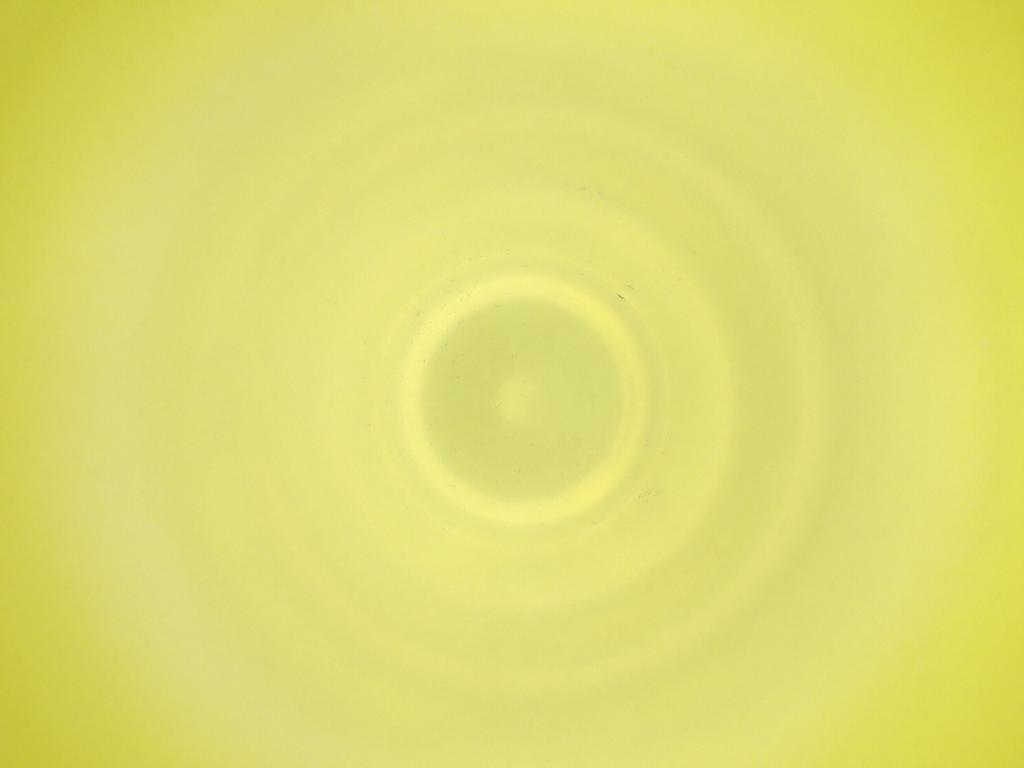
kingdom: Animalia
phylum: Arthropoda
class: Insecta
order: Diptera
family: Cecidomyiidae
